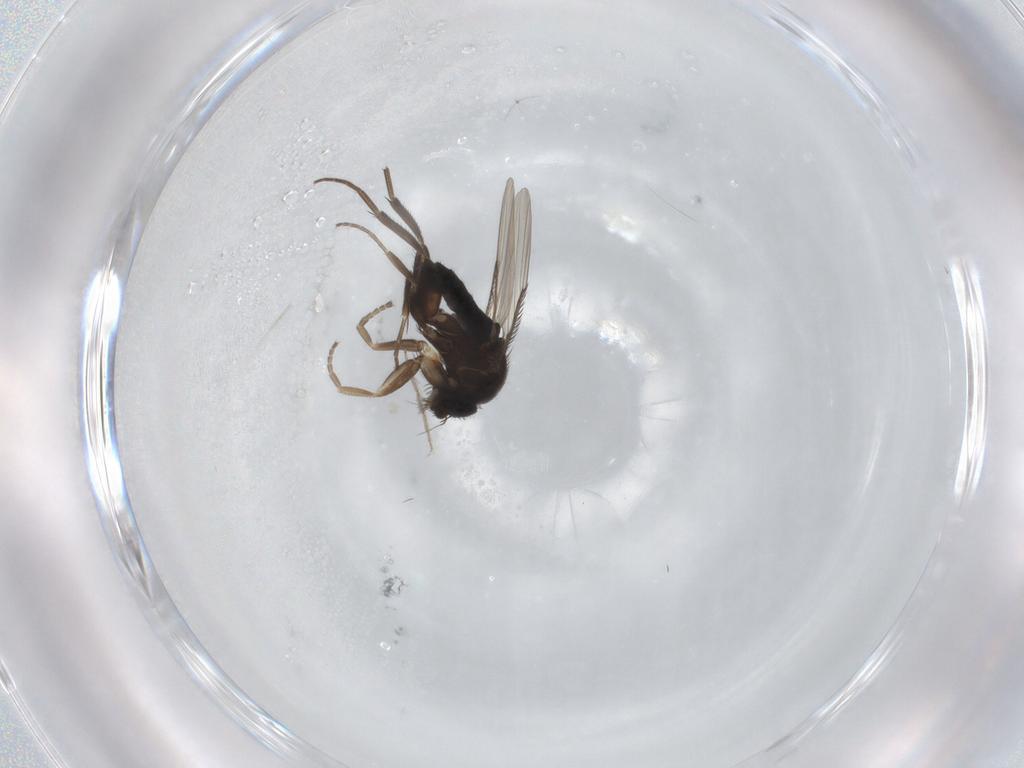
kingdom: Animalia
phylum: Arthropoda
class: Insecta
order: Diptera
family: Phoridae
